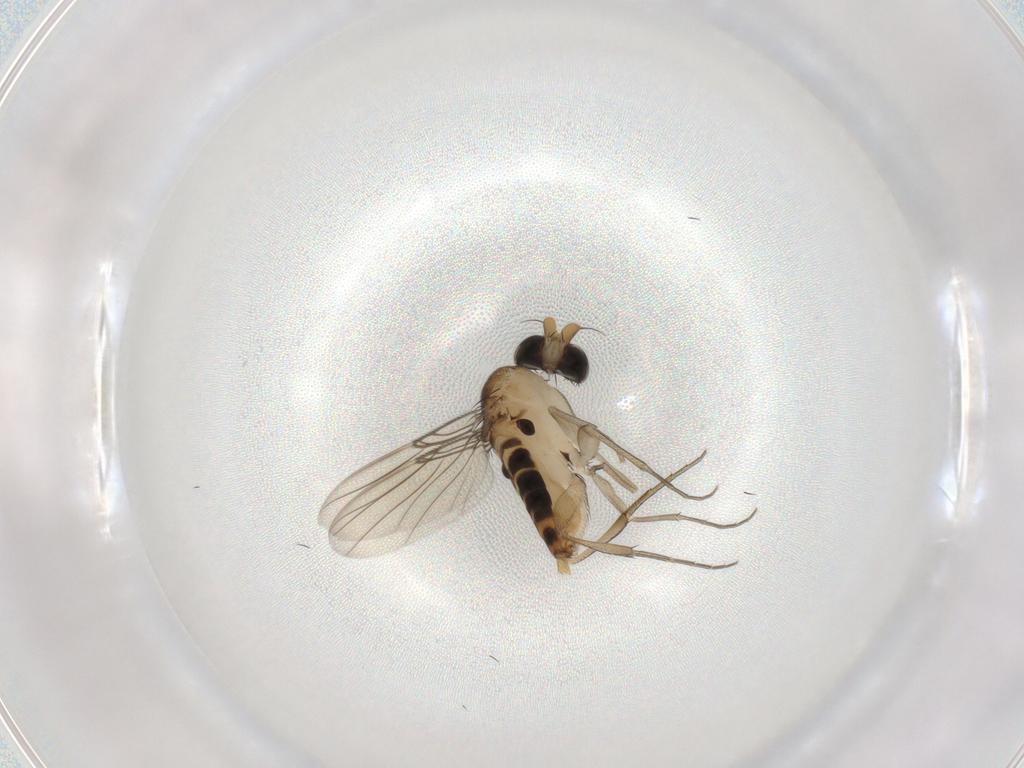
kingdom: Animalia
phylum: Arthropoda
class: Insecta
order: Diptera
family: Phoridae
